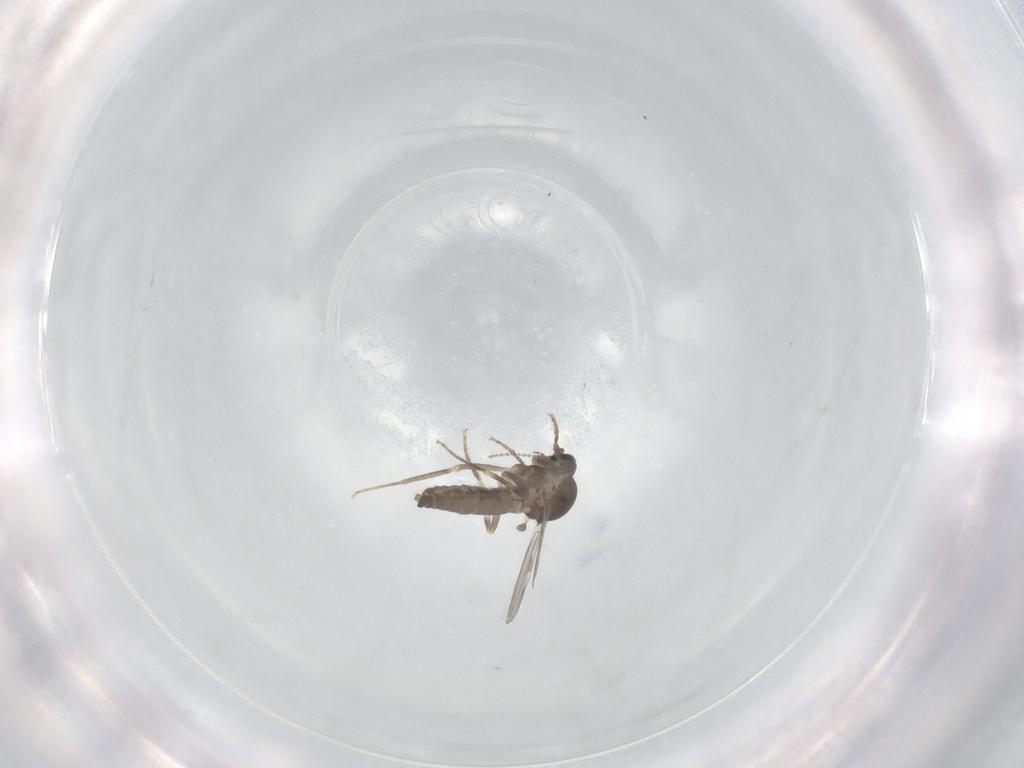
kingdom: Animalia
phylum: Arthropoda
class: Insecta
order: Diptera
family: Ceratopogonidae
